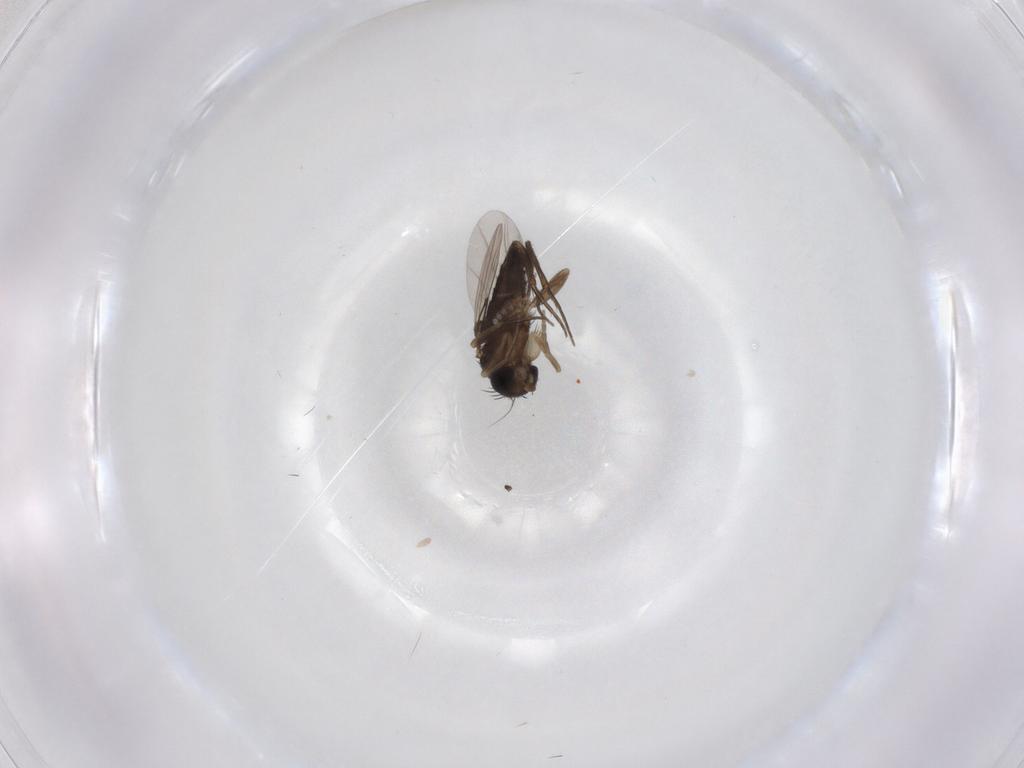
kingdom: Animalia
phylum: Arthropoda
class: Insecta
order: Diptera
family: Phoridae
